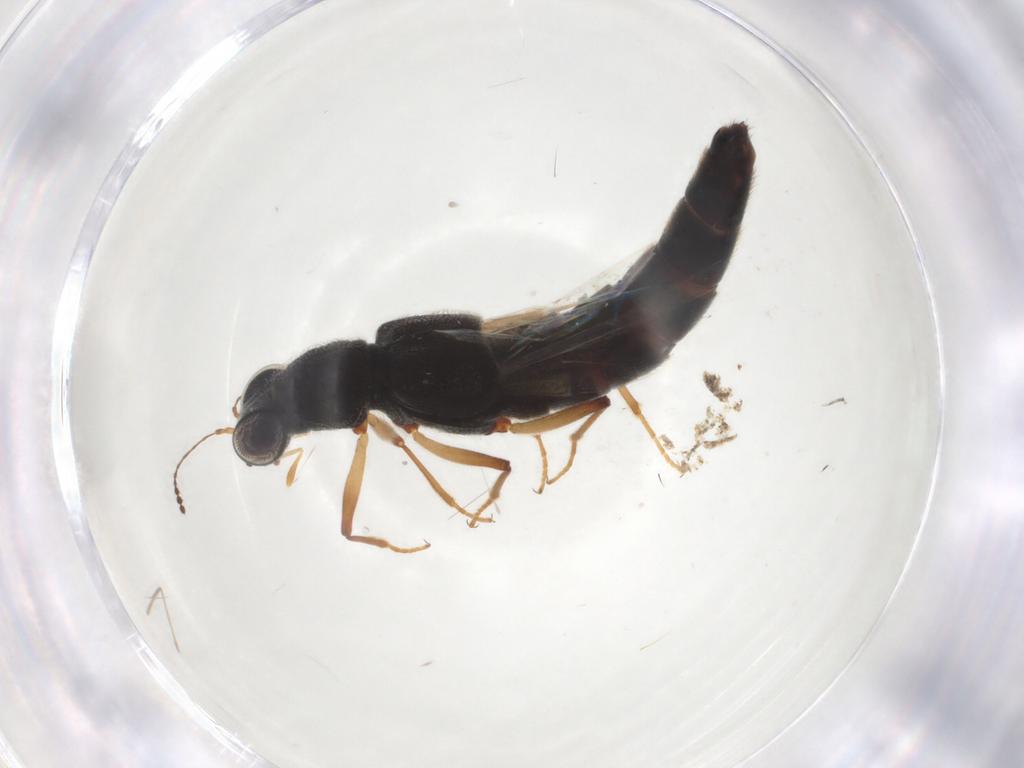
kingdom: Animalia
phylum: Arthropoda
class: Insecta
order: Coleoptera
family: Staphylinidae
